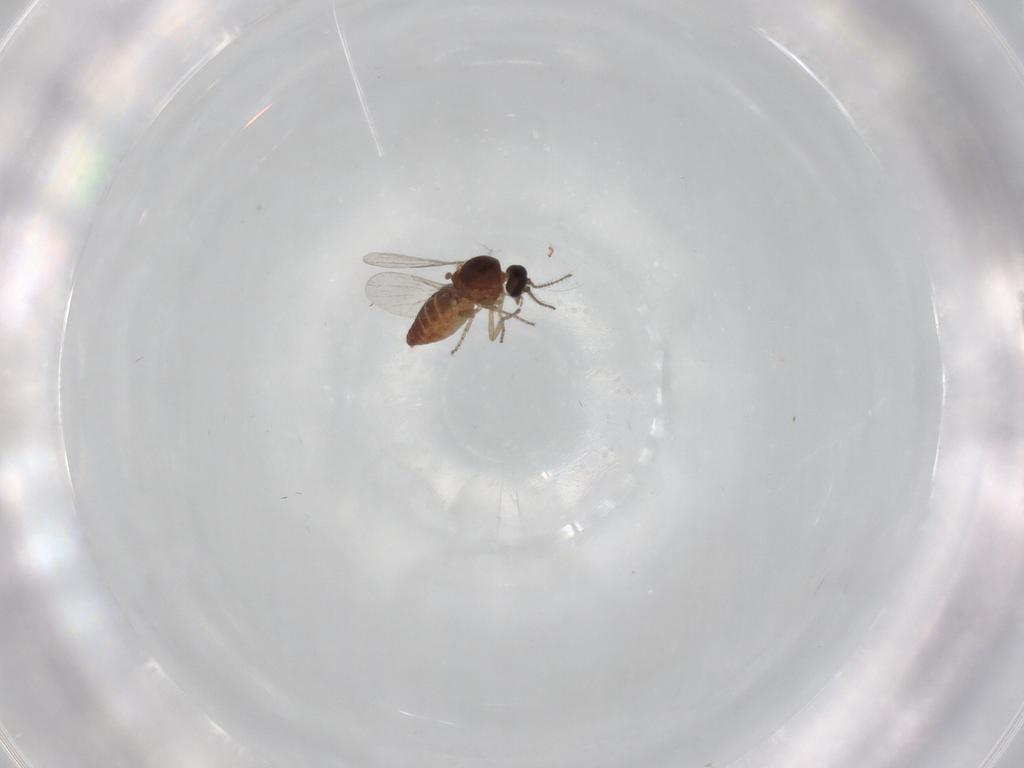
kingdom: Animalia
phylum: Arthropoda
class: Insecta
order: Diptera
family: Ceratopogonidae
